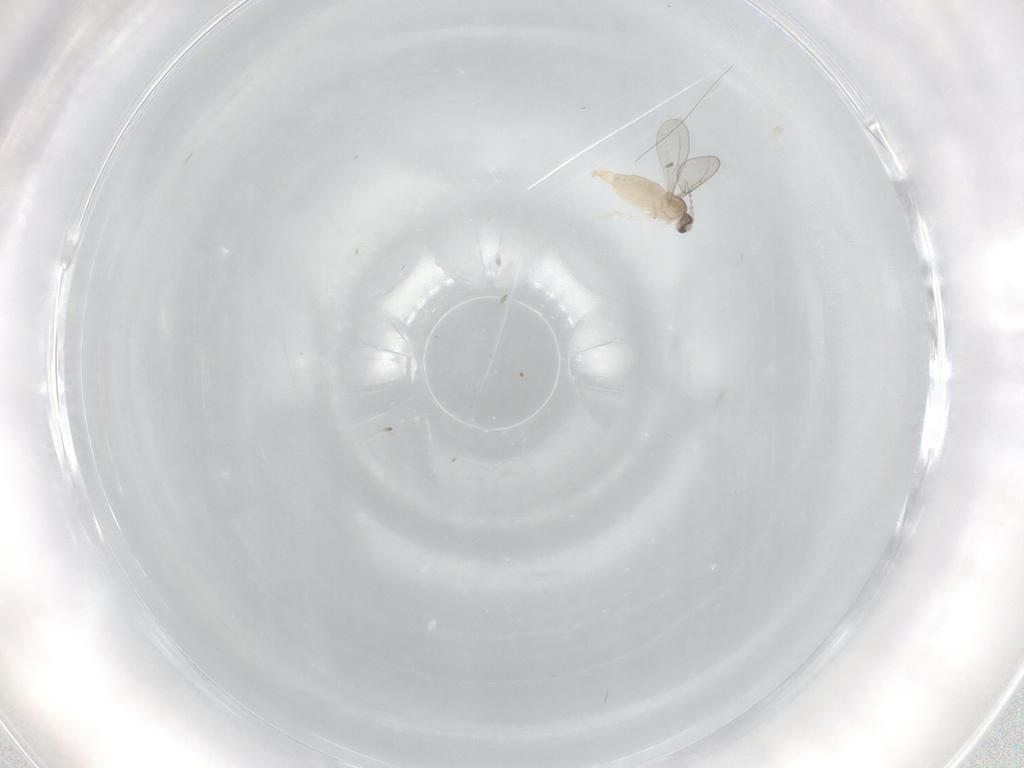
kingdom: Animalia
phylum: Arthropoda
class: Insecta
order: Diptera
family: Cecidomyiidae
